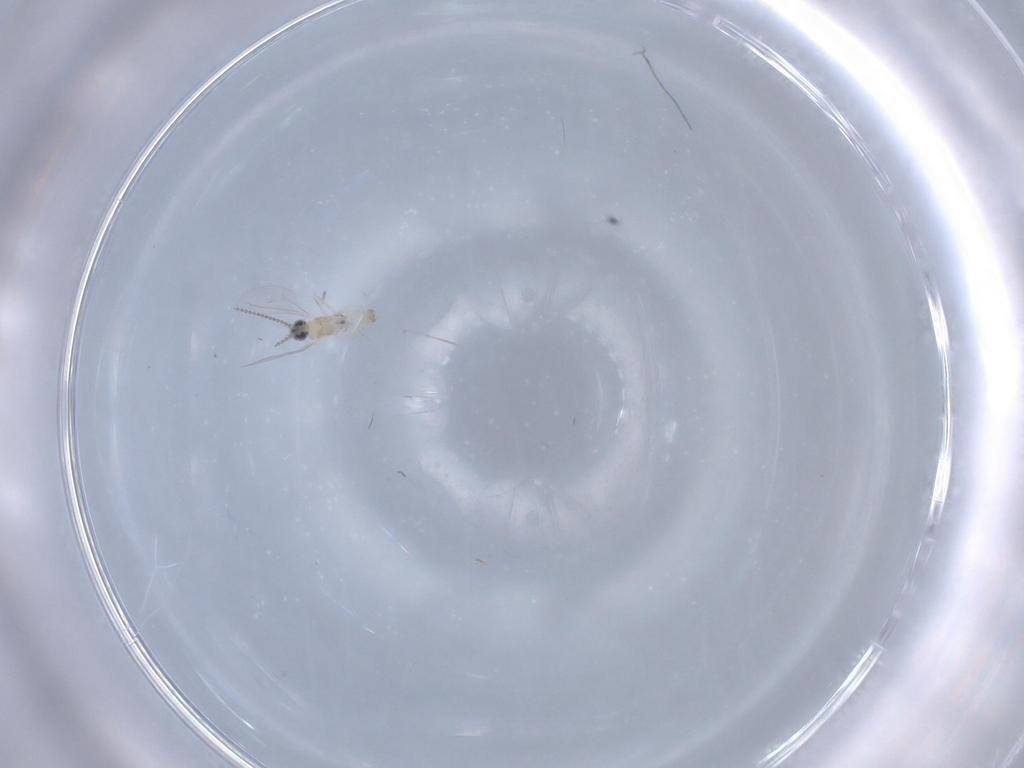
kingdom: Animalia
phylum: Arthropoda
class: Insecta
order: Diptera
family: Cecidomyiidae
